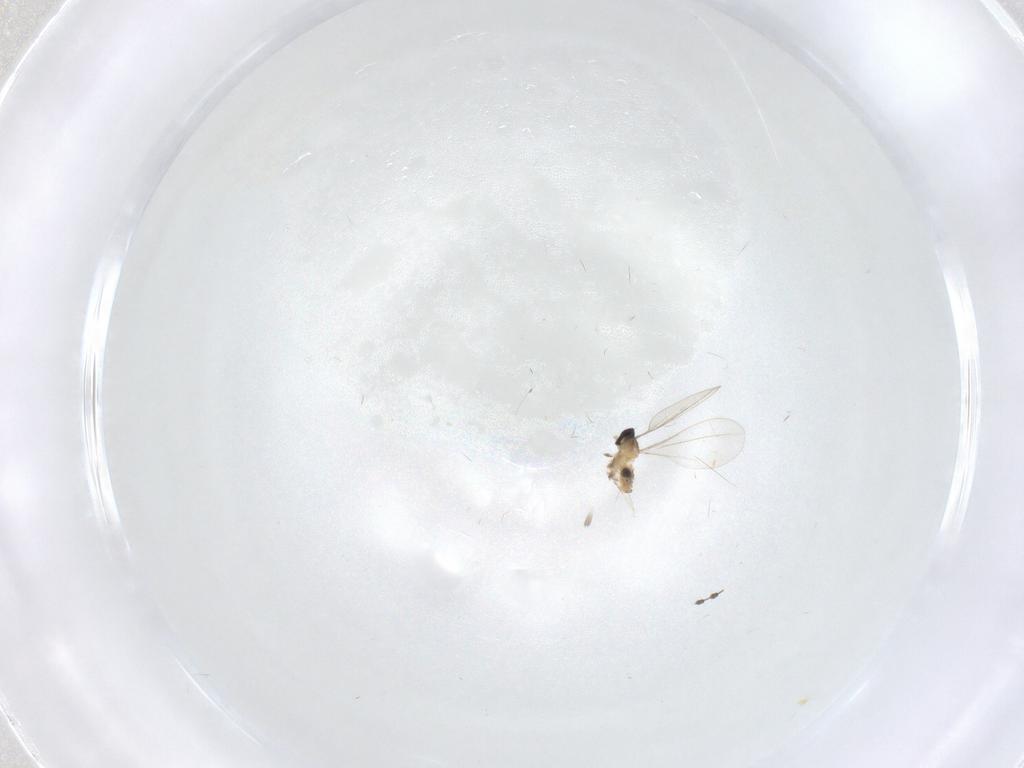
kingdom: Animalia
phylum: Arthropoda
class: Insecta
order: Diptera
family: Cecidomyiidae
